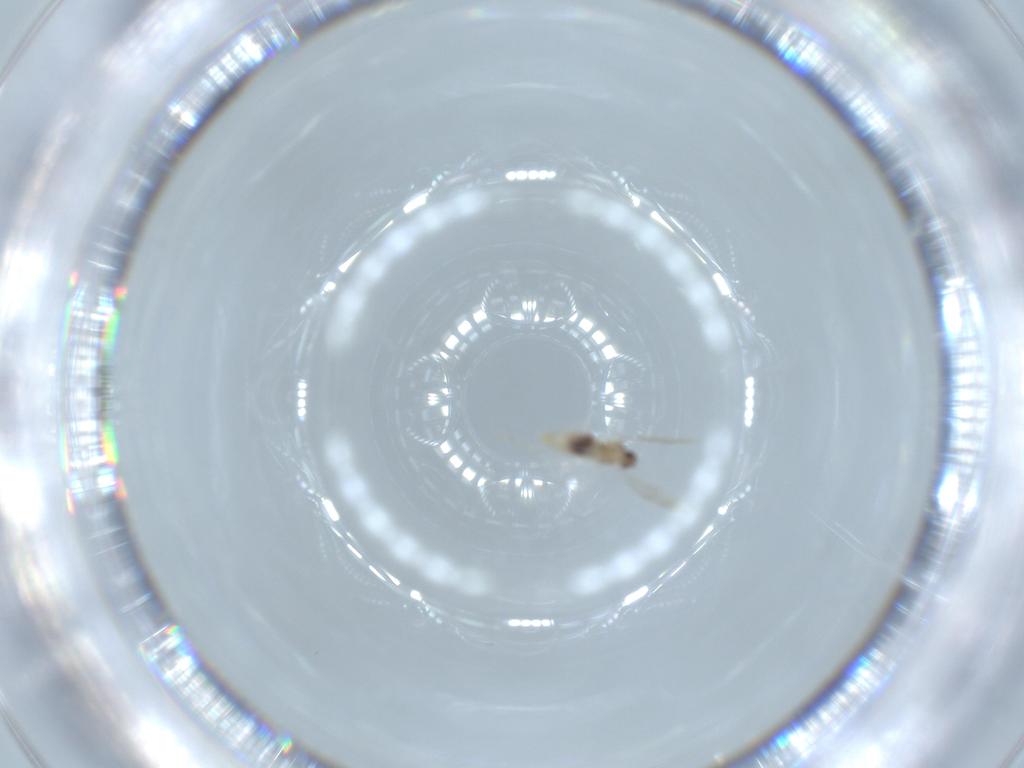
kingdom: Animalia
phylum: Arthropoda
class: Insecta
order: Diptera
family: Cecidomyiidae
